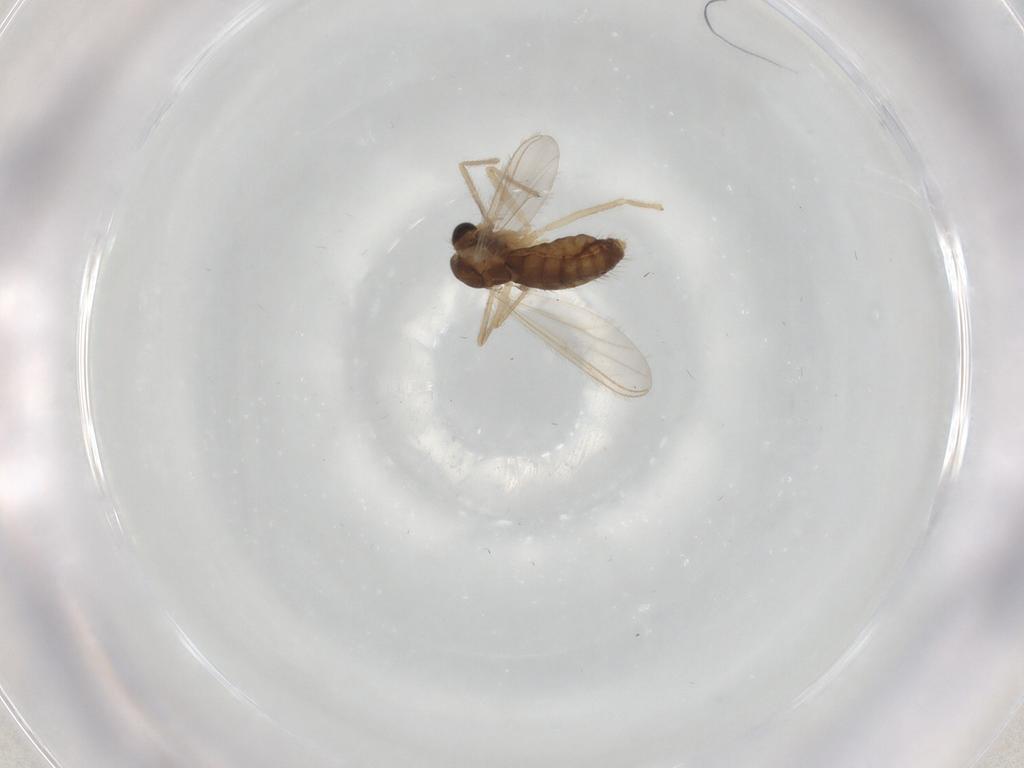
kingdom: Animalia
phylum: Arthropoda
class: Insecta
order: Diptera
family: Chironomidae
